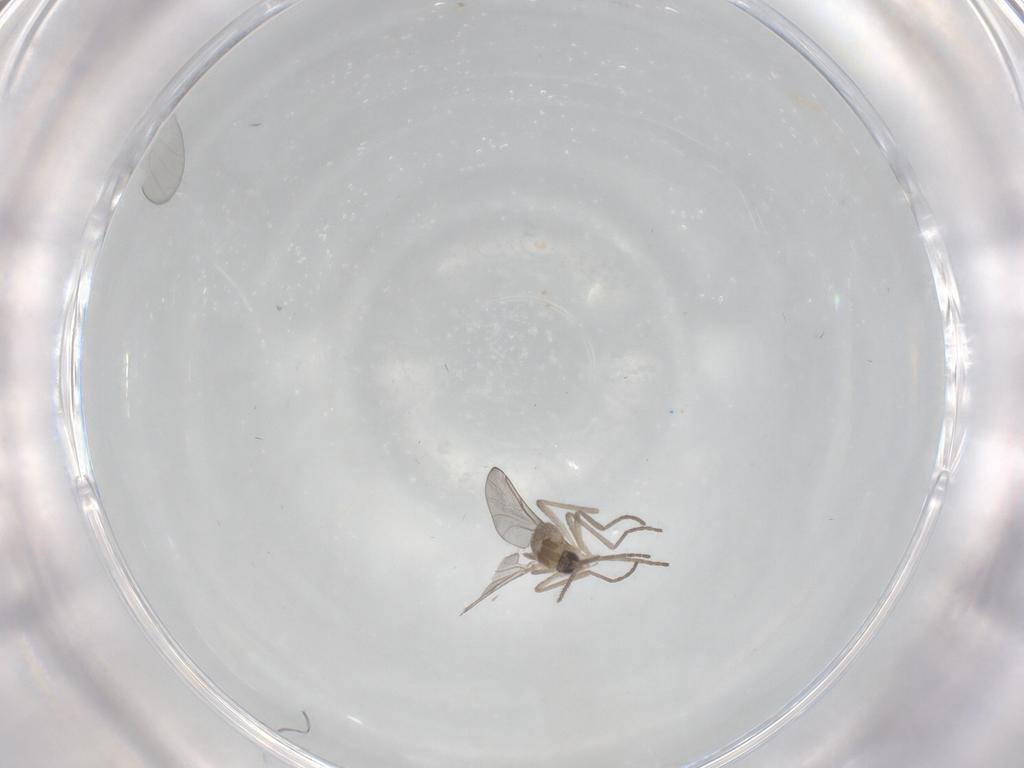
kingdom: Animalia
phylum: Arthropoda
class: Insecta
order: Diptera
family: Cecidomyiidae
